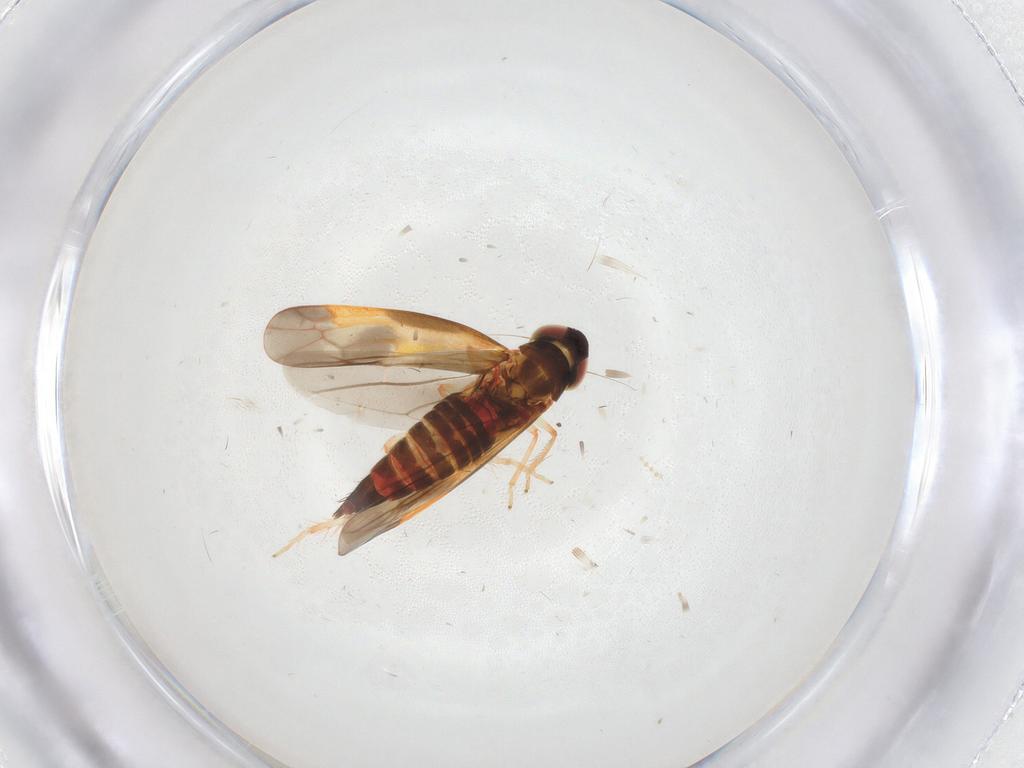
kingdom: Animalia
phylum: Arthropoda
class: Insecta
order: Hemiptera
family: Cicadellidae
